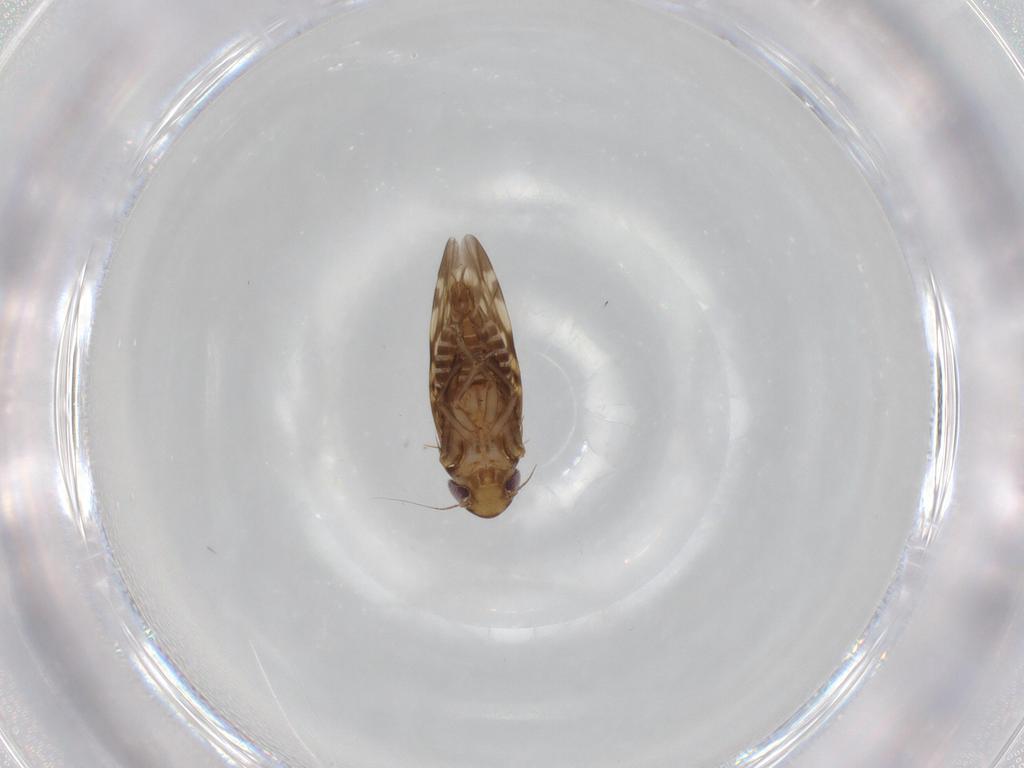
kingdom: Animalia
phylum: Arthropoda
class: Insecta
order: Hemiptera
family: Cicadellidae
